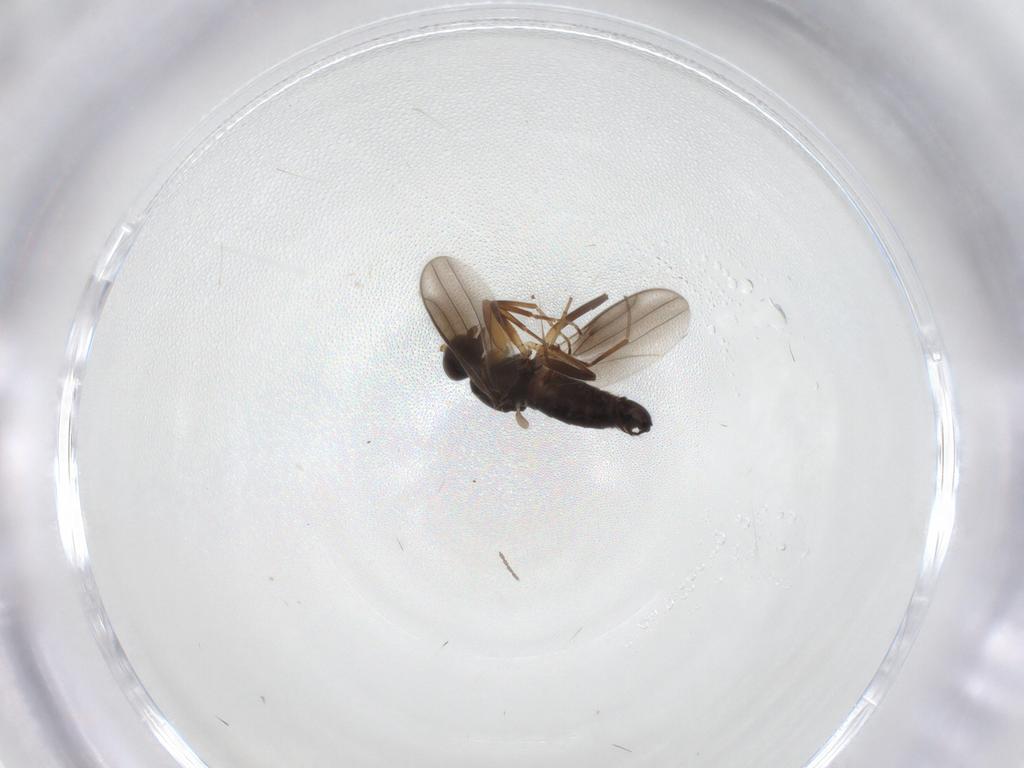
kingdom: Animalia
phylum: Arthropoda
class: Insecta
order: Diptera
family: Hybotidae
